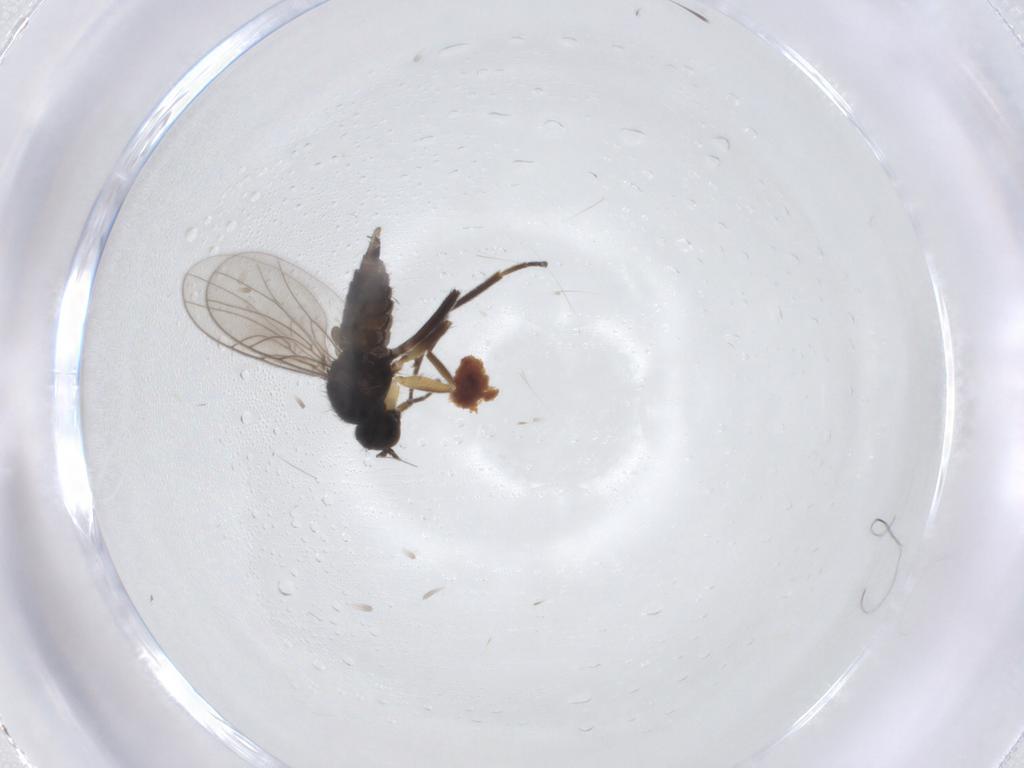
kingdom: Animalia
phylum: Arthropoda
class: Insecta
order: Diptera
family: Hybotidae
